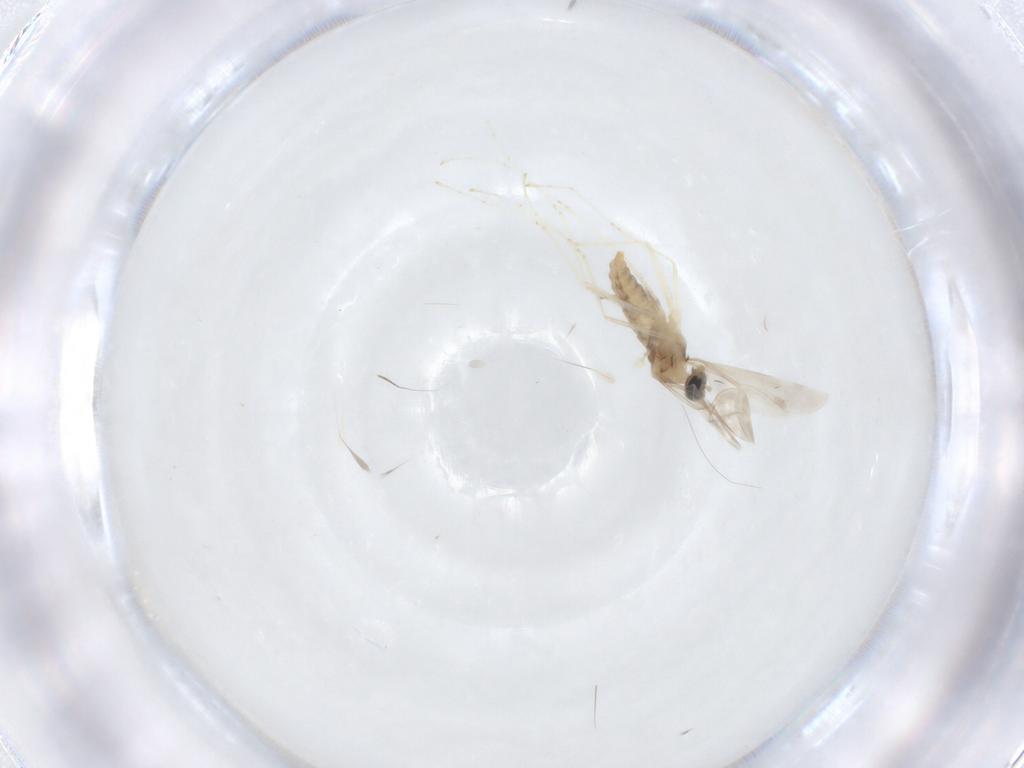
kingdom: Animalia
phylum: Arthropoda
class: Insecta
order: Diptera
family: Cecidomyiidae
